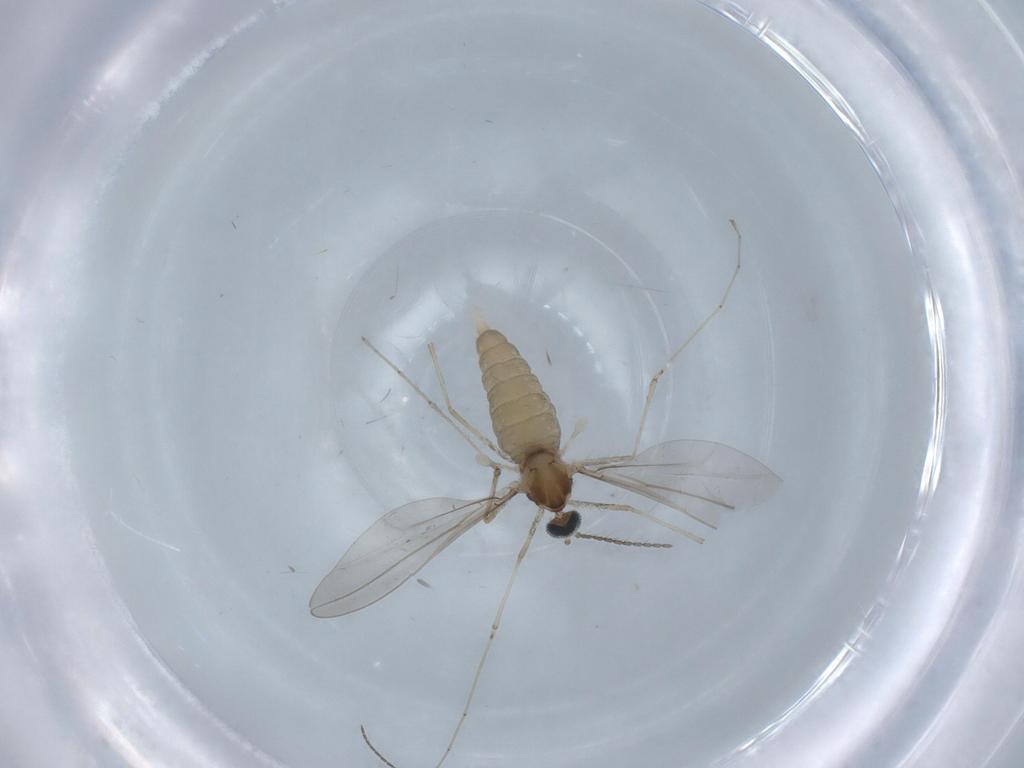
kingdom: Animalia
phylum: Arthropoda
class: Insecta
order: Diptera
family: Cecidomyiidae
